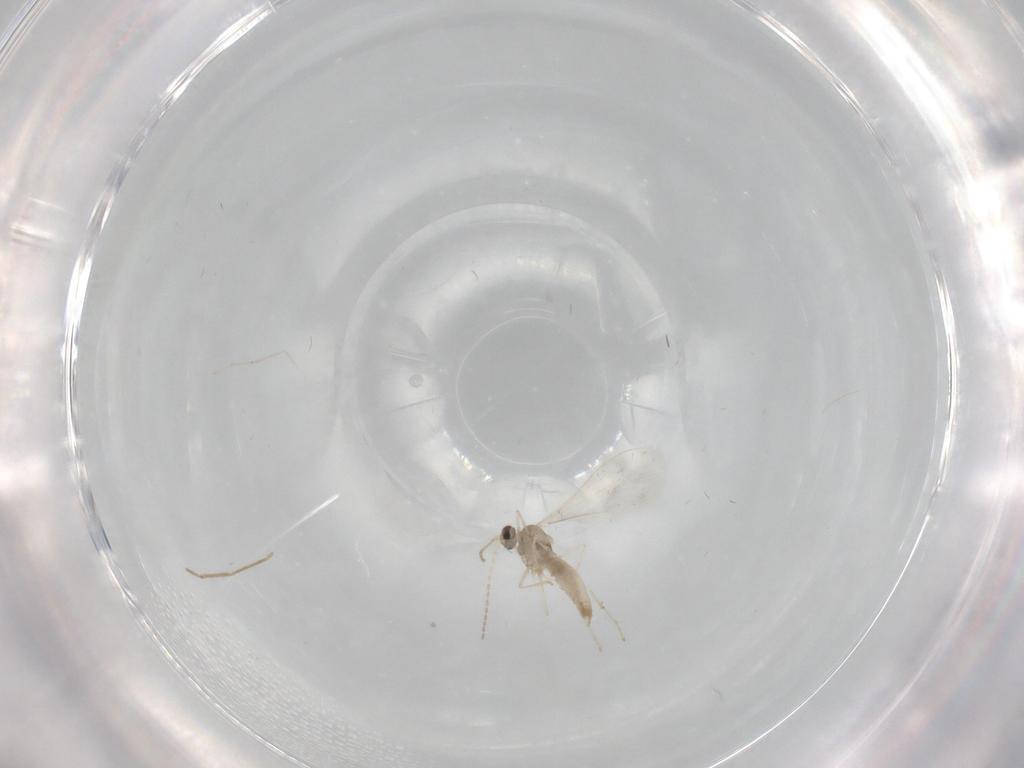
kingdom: Animalia
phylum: Arthropoda
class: Insecta
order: Diptera
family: Cecidomyiidae
